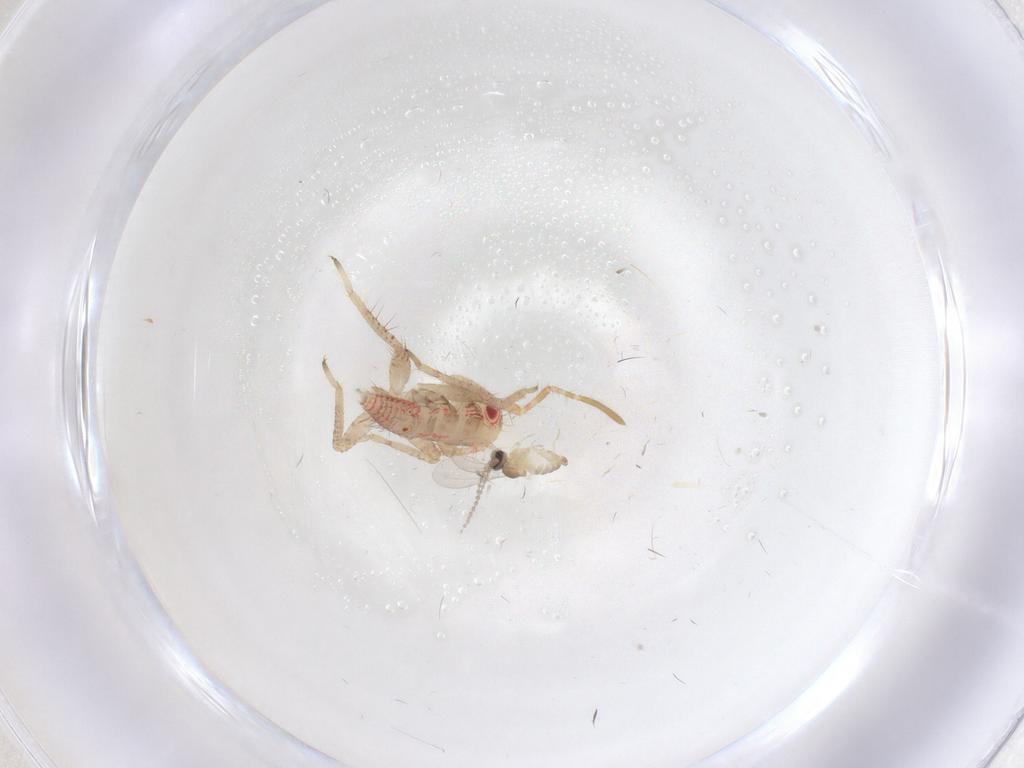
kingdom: Animalia
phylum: Arthropoda
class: Insecta
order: Hemiptera
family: Miridae
